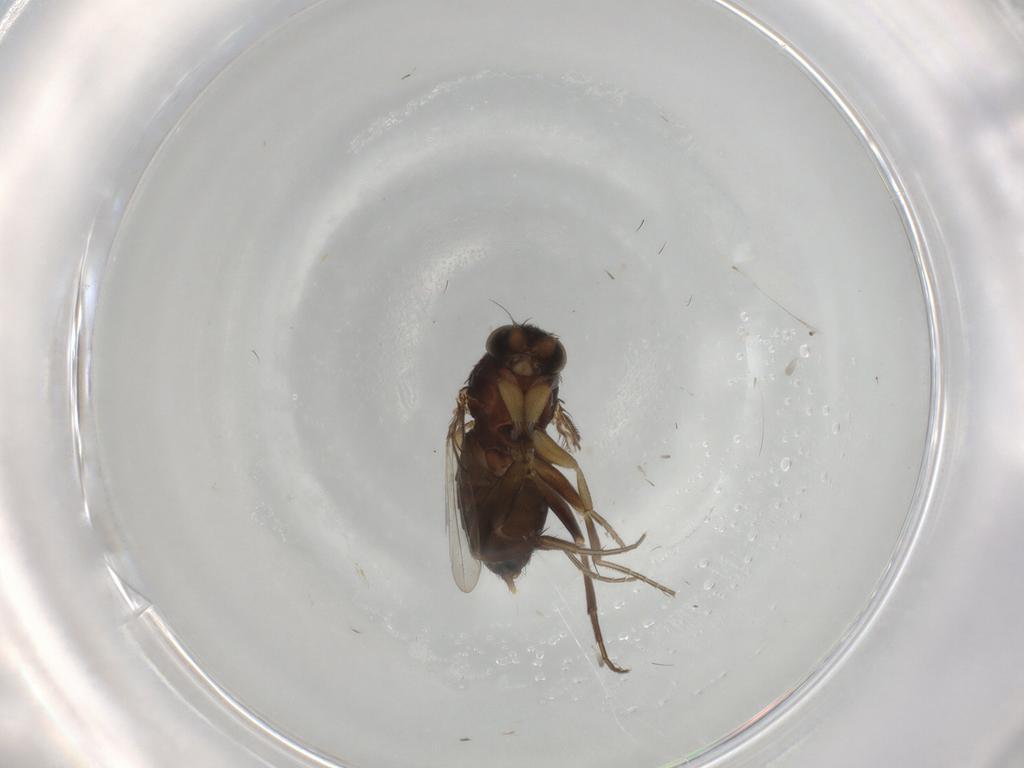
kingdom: Animalia
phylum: Arthropoda
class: Insecta
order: Diptera
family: Phoridae
